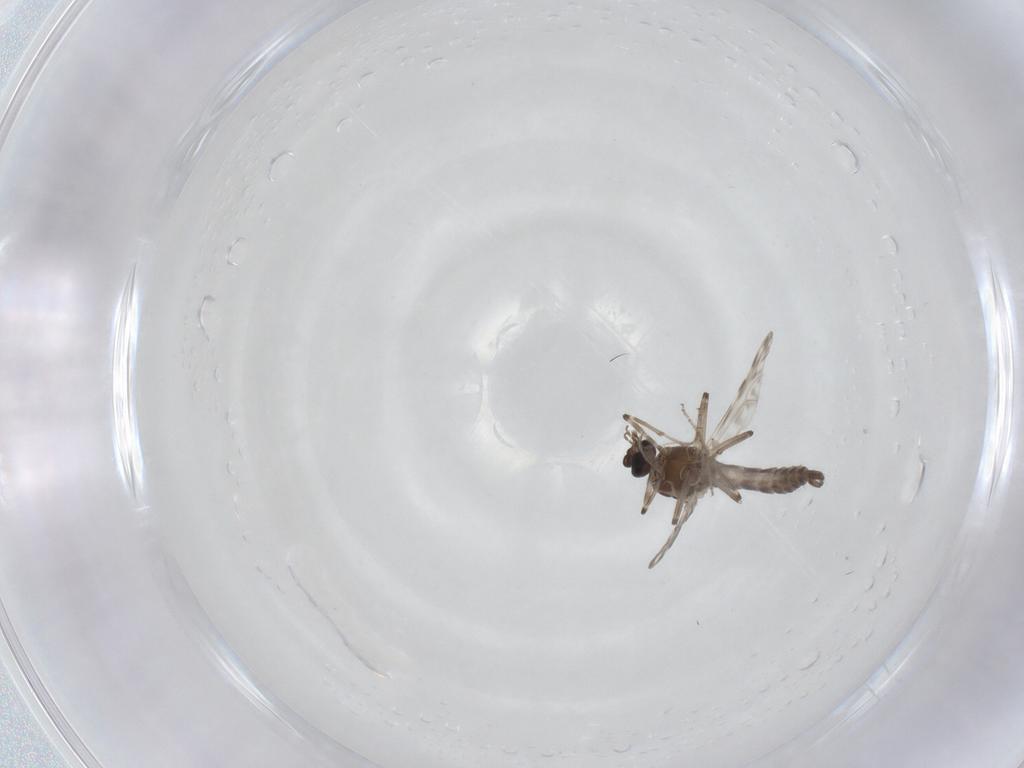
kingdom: Animalia
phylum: Arthropoda
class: Insecta
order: Diptera
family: Ceratopogonidae
